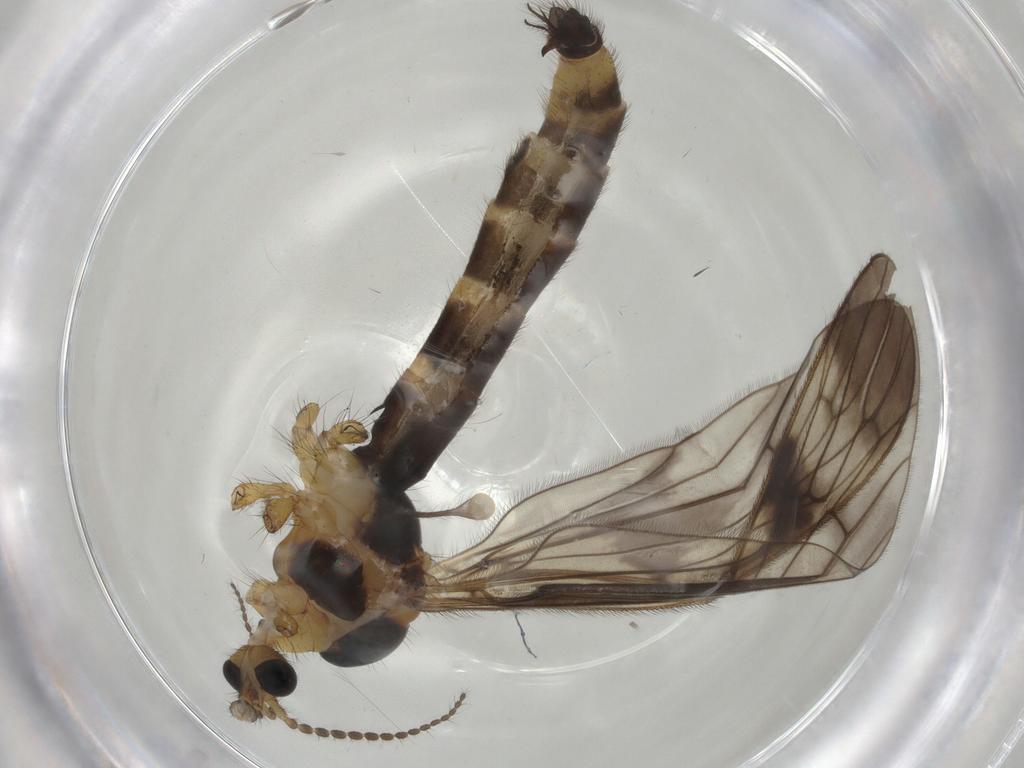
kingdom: Animalia
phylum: Arthropoda
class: Insecta
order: Diptera
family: Limoniidae
